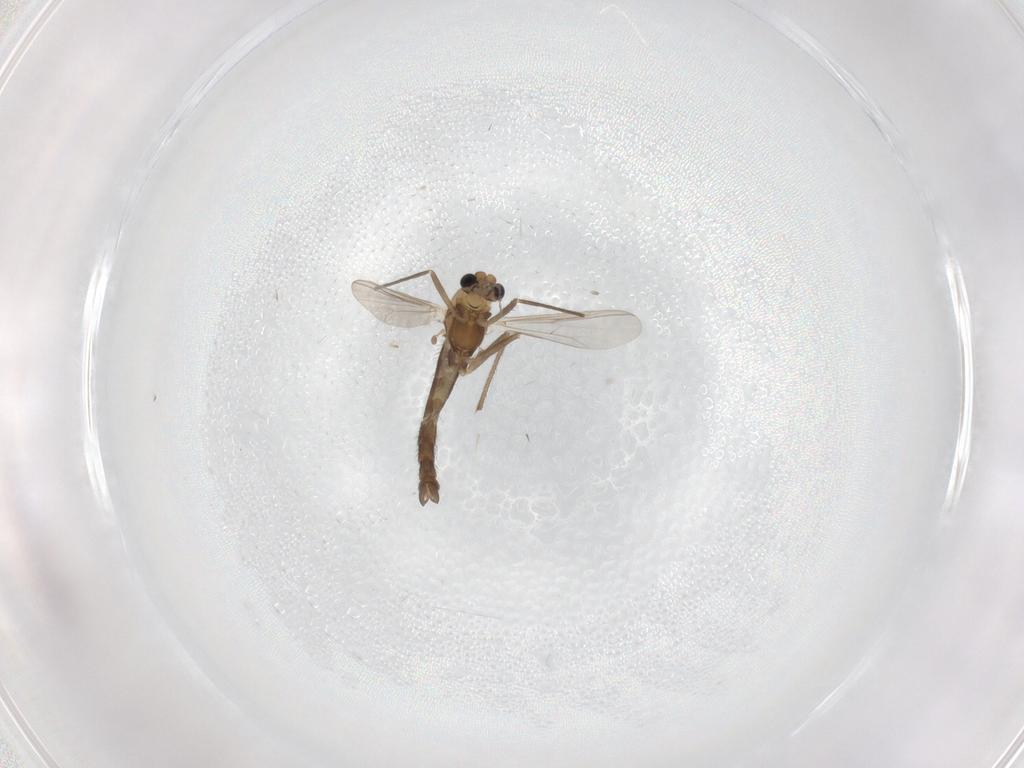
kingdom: Animalia
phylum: Arthropoda
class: Insecta
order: Diptera
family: Chironomidae
